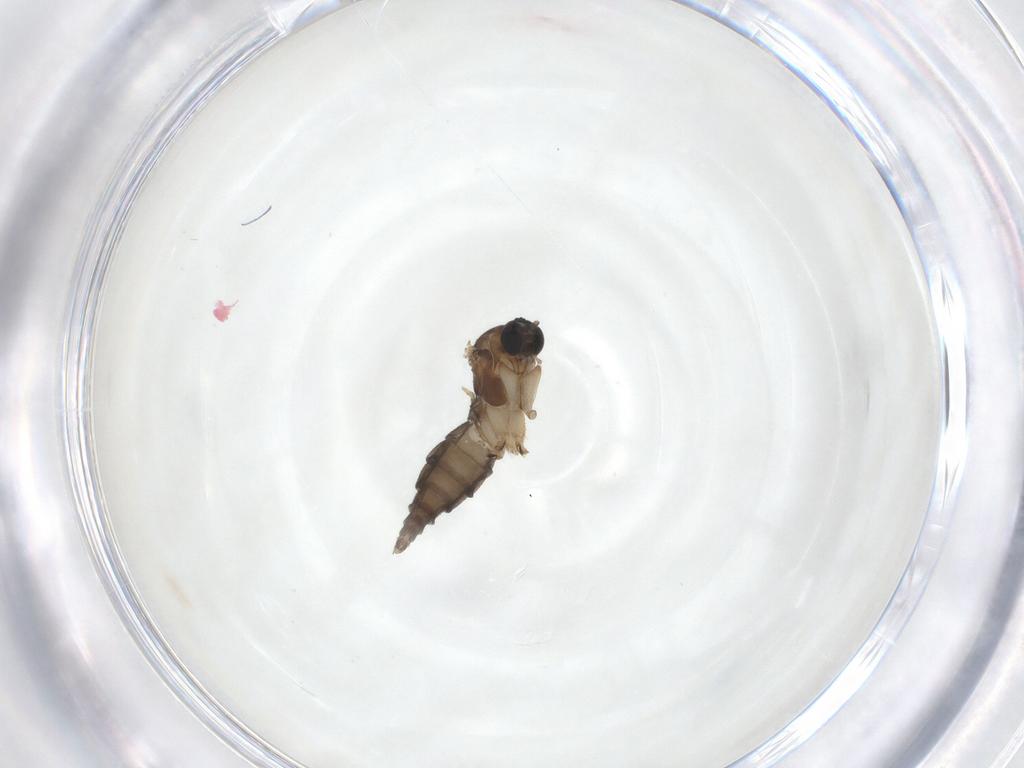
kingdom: Animalia
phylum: Arthropoda
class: Insecta
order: Diptera
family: Sciaridae
